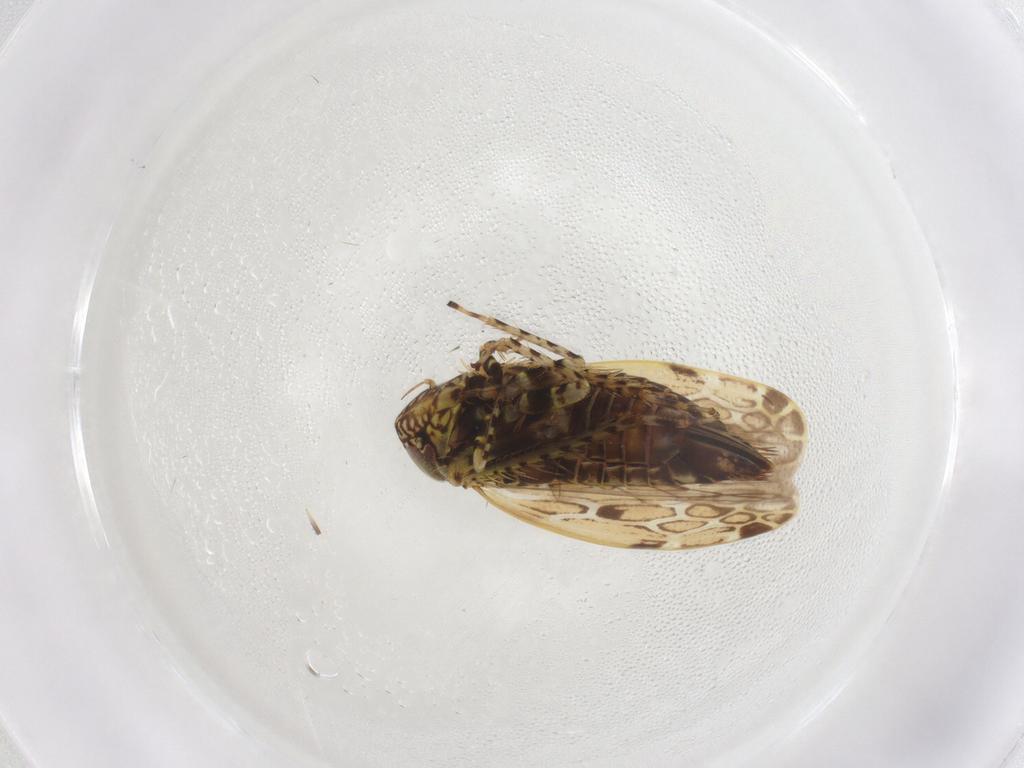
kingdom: Animalia
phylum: Arthropoda
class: Insecta
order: Hemiptera
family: Cicadellidae
